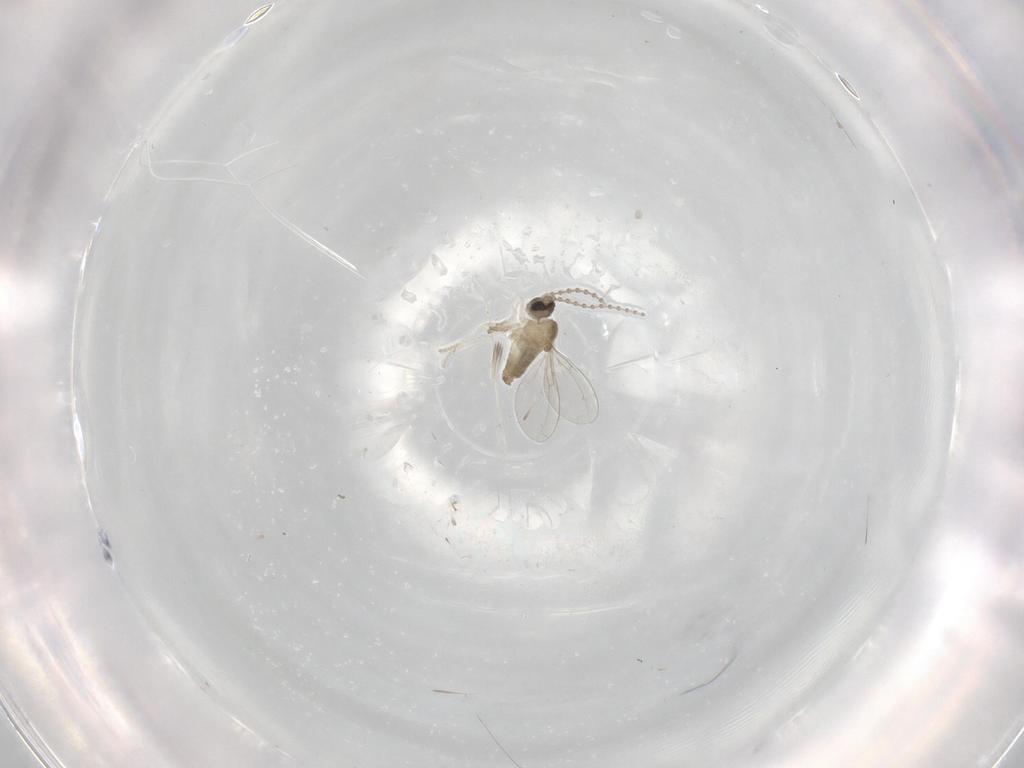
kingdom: Animalia
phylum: Arthropoda
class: Insecta
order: Diptera
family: Cecidomyiidae
